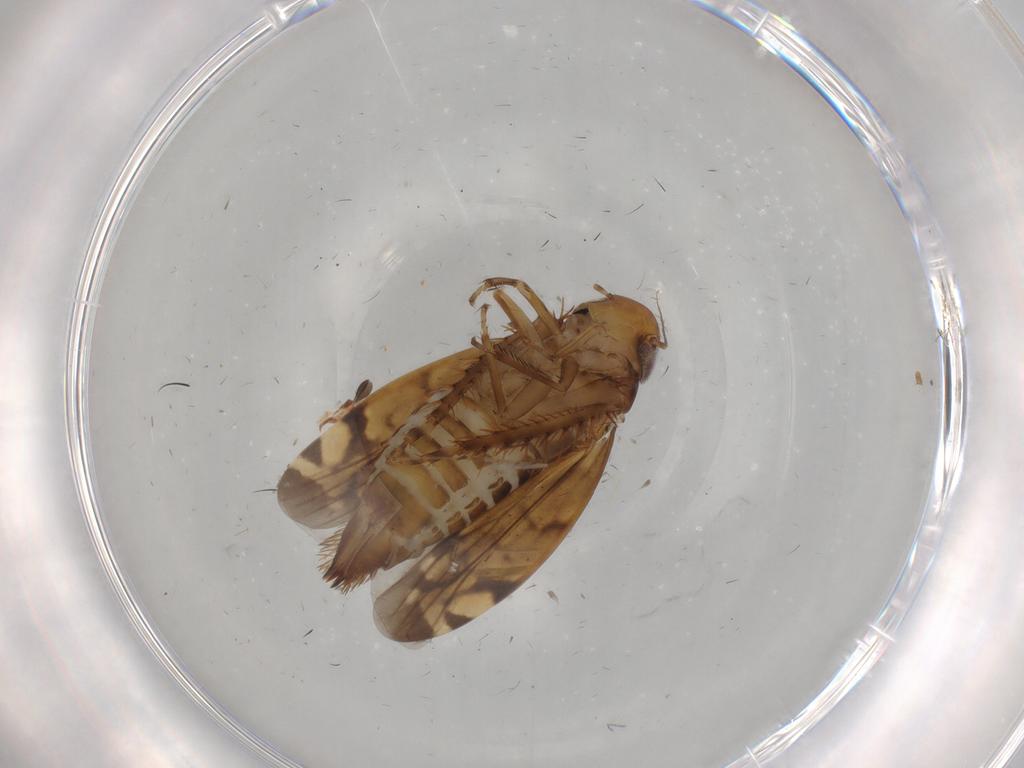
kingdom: Animalia
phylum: Arthropoda
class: Insecta
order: Hemiptera
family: Cicadellidae
